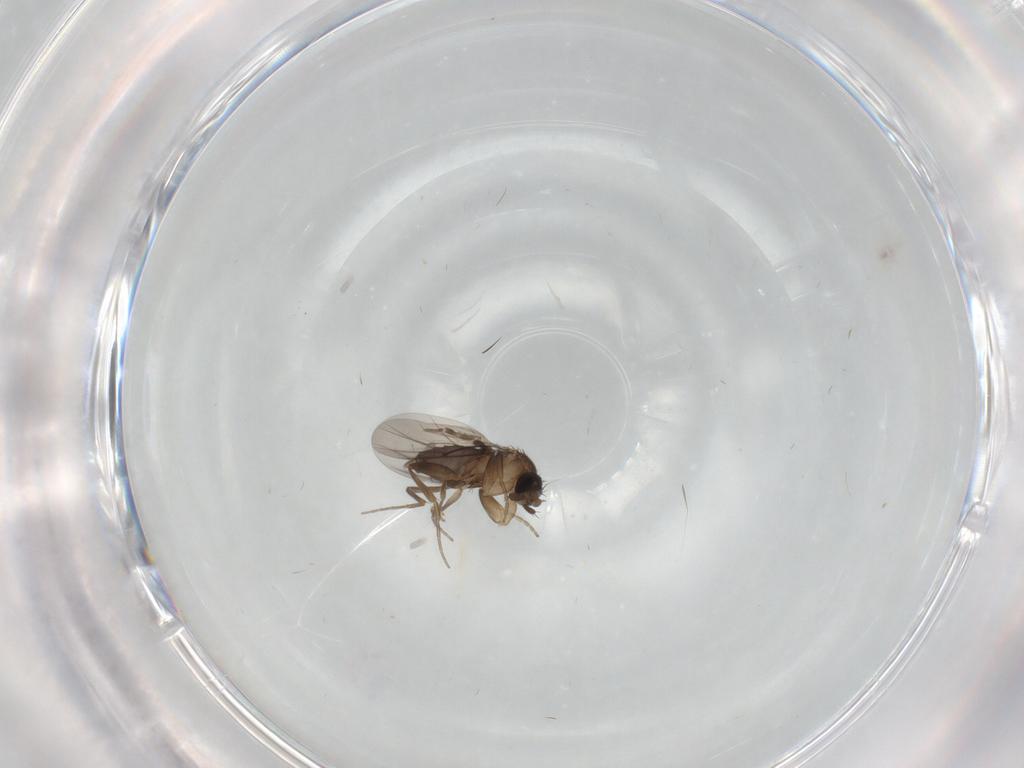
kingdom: Animalia
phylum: Arthropoda
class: Insecta
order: Diptera
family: Phoridae
